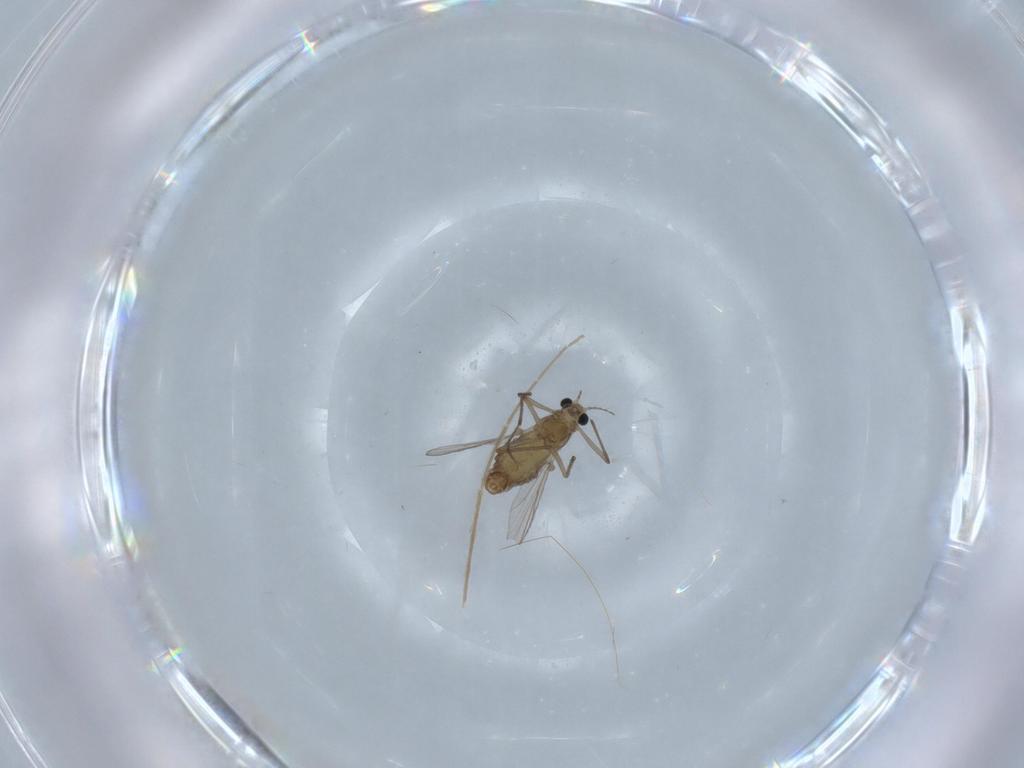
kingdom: Animalia
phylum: Arthropoda
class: Insecta
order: Diptera
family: Chironomidae
